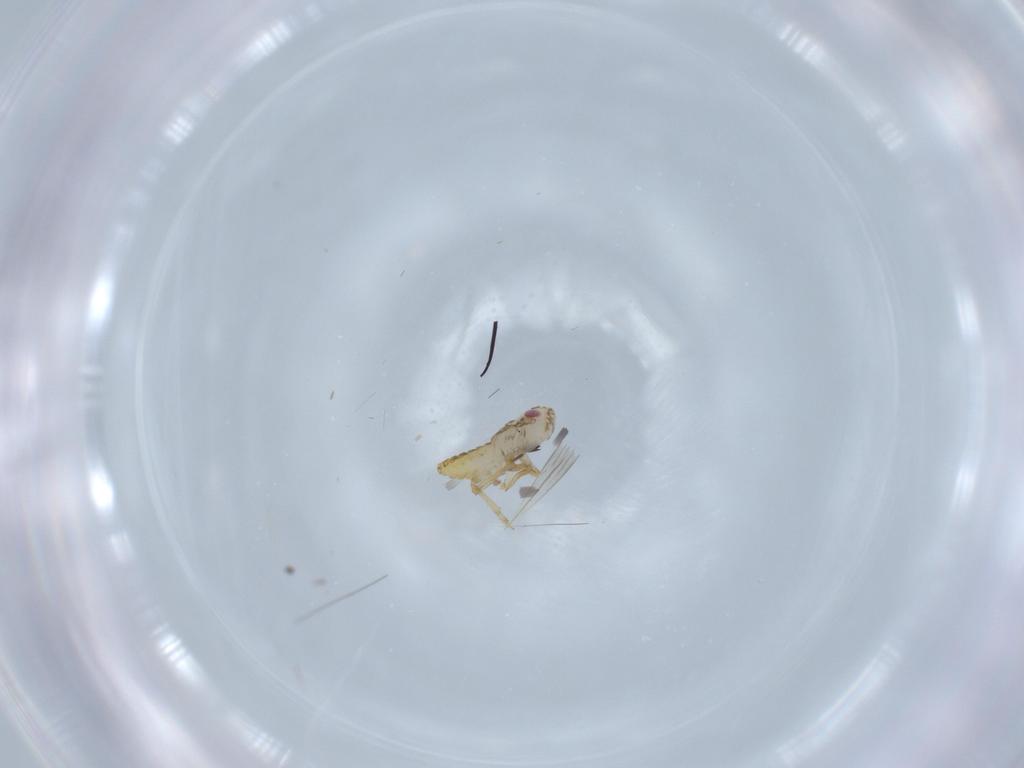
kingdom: Animalia
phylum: Arthropoda
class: Insecta
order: Hemiptera
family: Delphacidae
